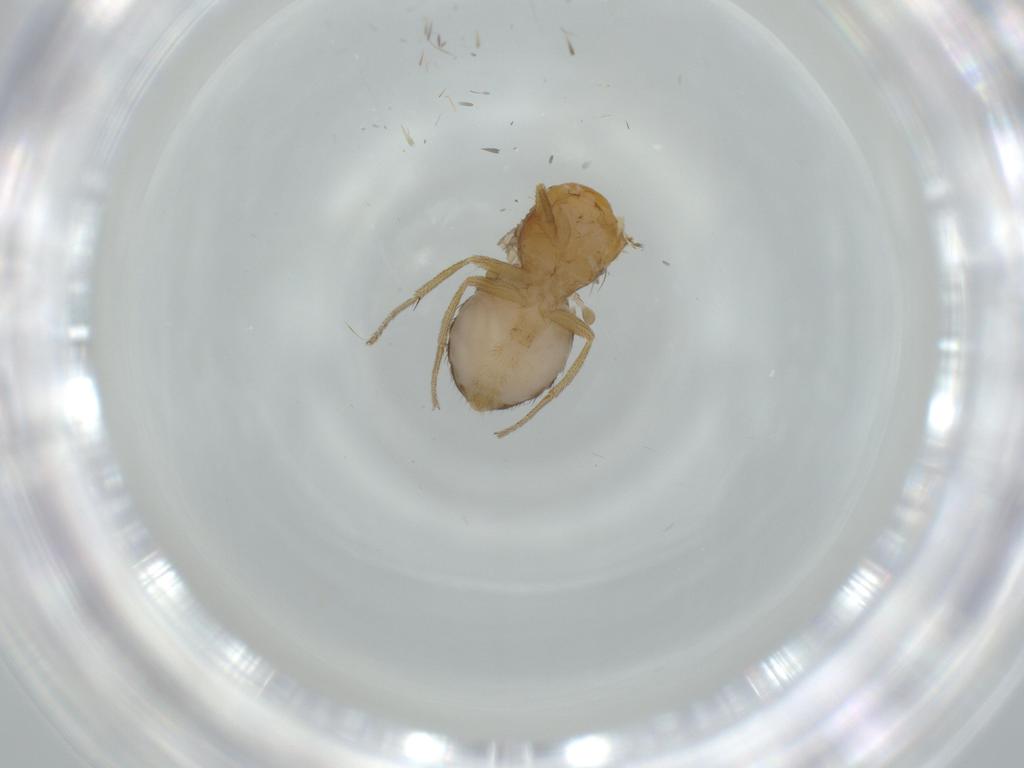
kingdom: Animalia
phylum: Arthropoda
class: Insecta
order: Diptera
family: Drosophilidae
